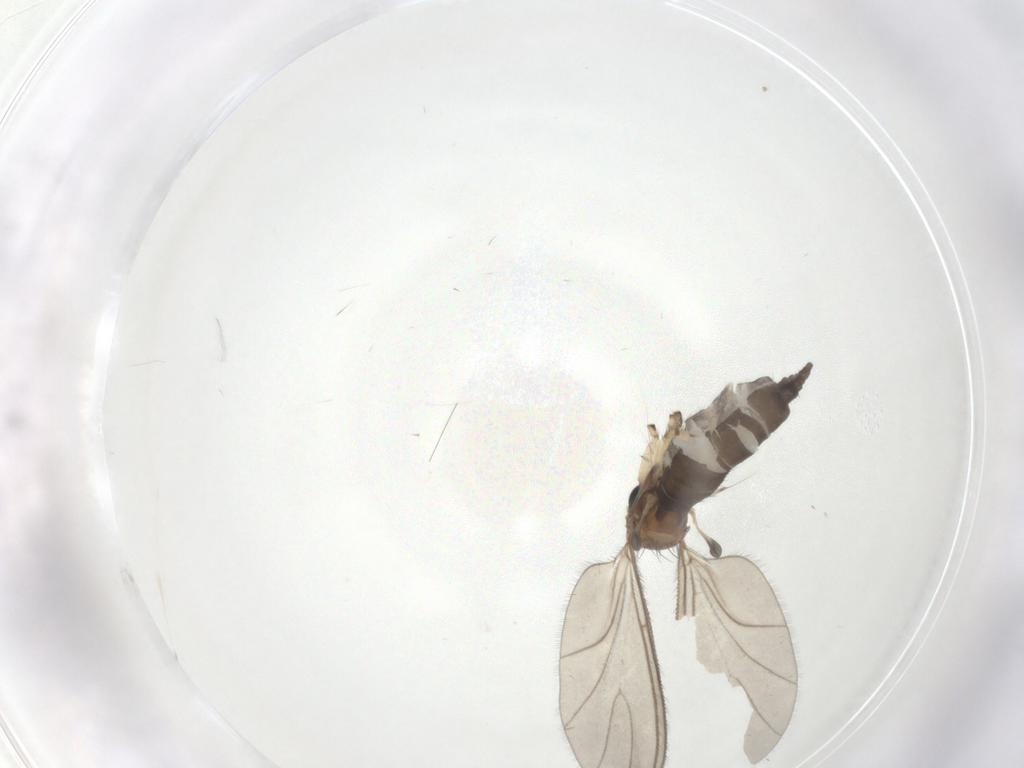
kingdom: Animalia
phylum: Arthropoda
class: Insecta
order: Diptera
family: Sciaridae
